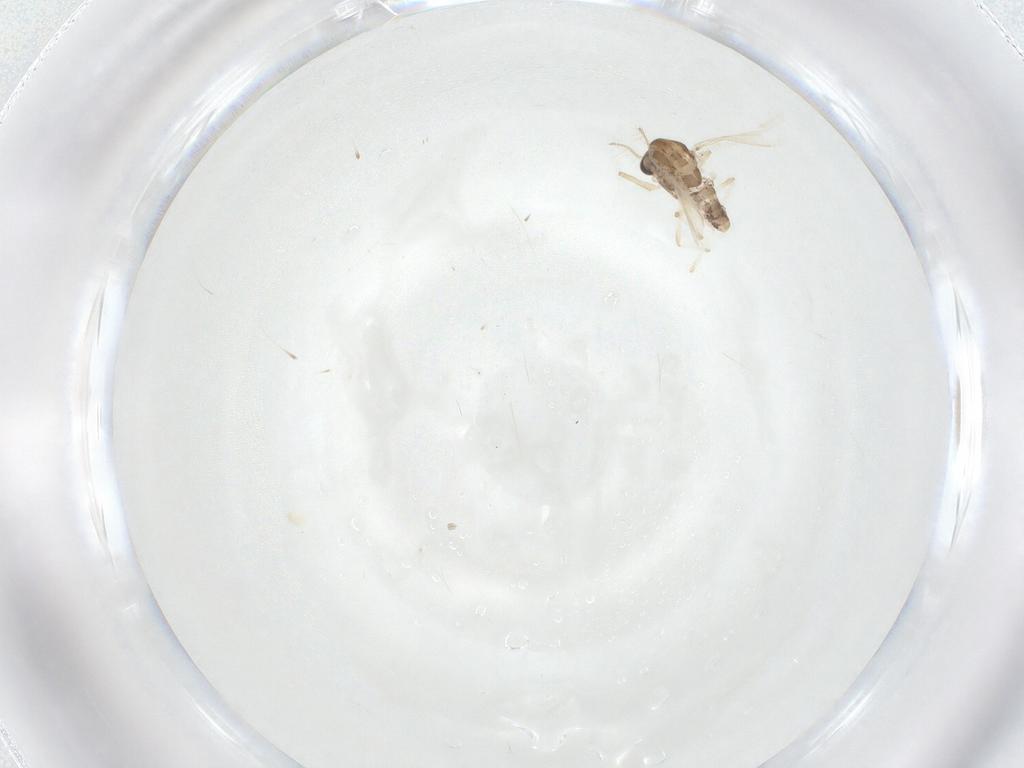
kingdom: Animalia
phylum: Arthropoda
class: Insecta
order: Diptera
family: Chironomidae
